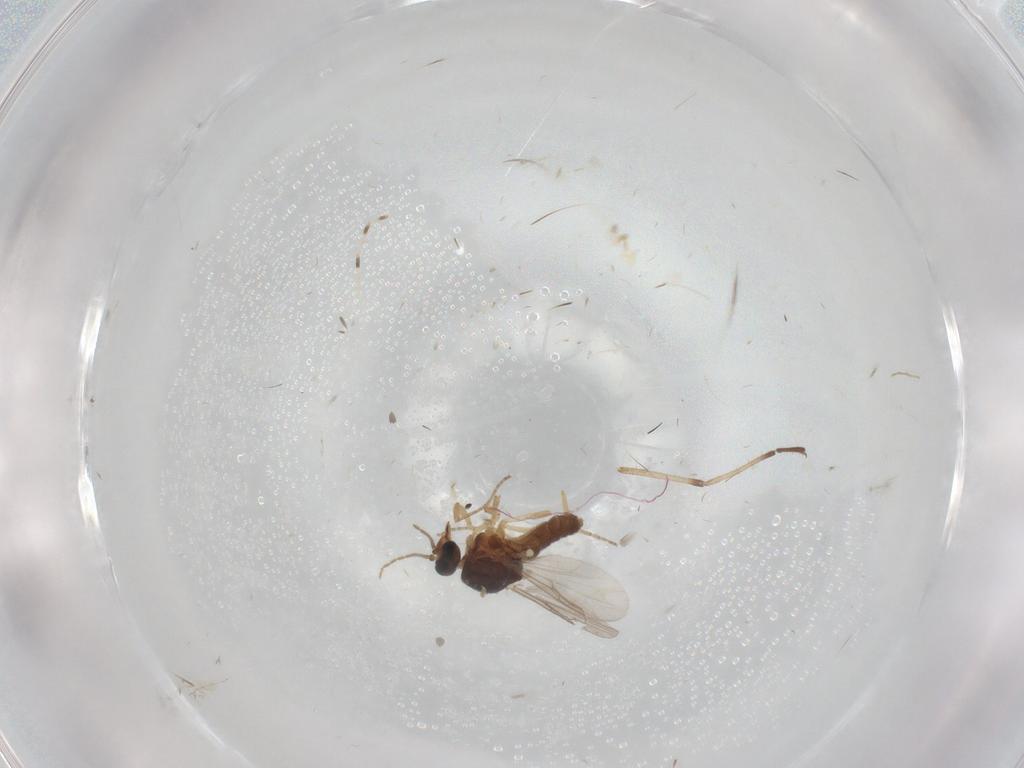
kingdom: Animalia
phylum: Arthropoda
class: Insecta
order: Diptera
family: Ceratopogonidae
